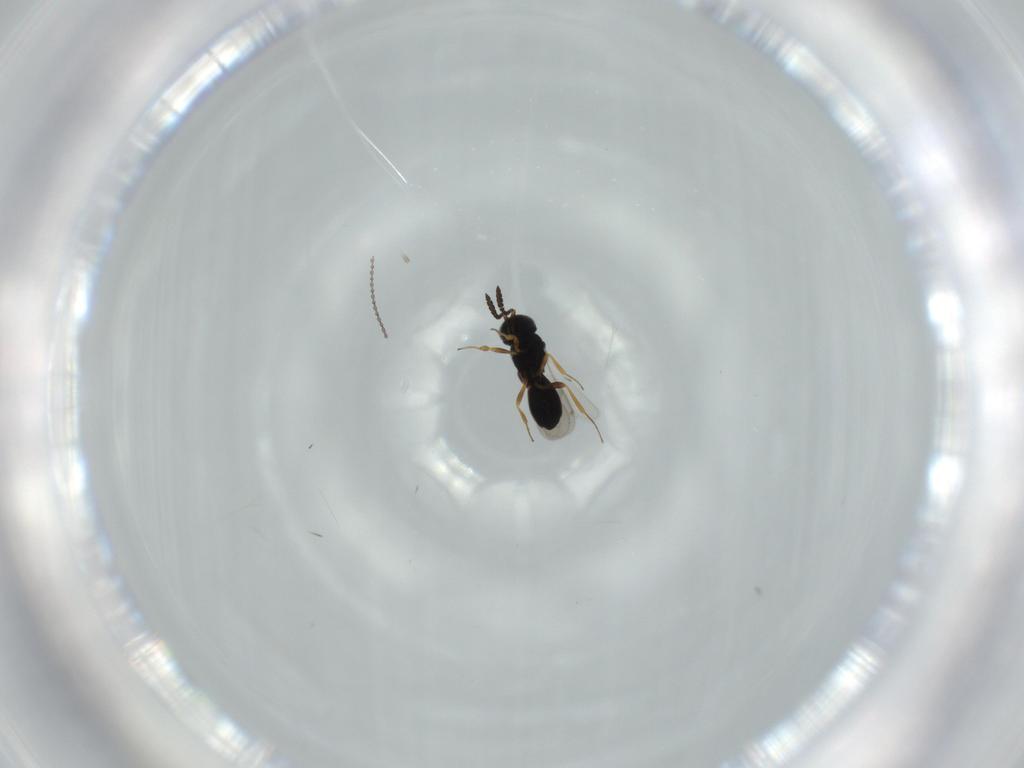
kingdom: Animalia
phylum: Arthropoda
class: Insecta
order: Hymenoptera
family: Scelionidae
